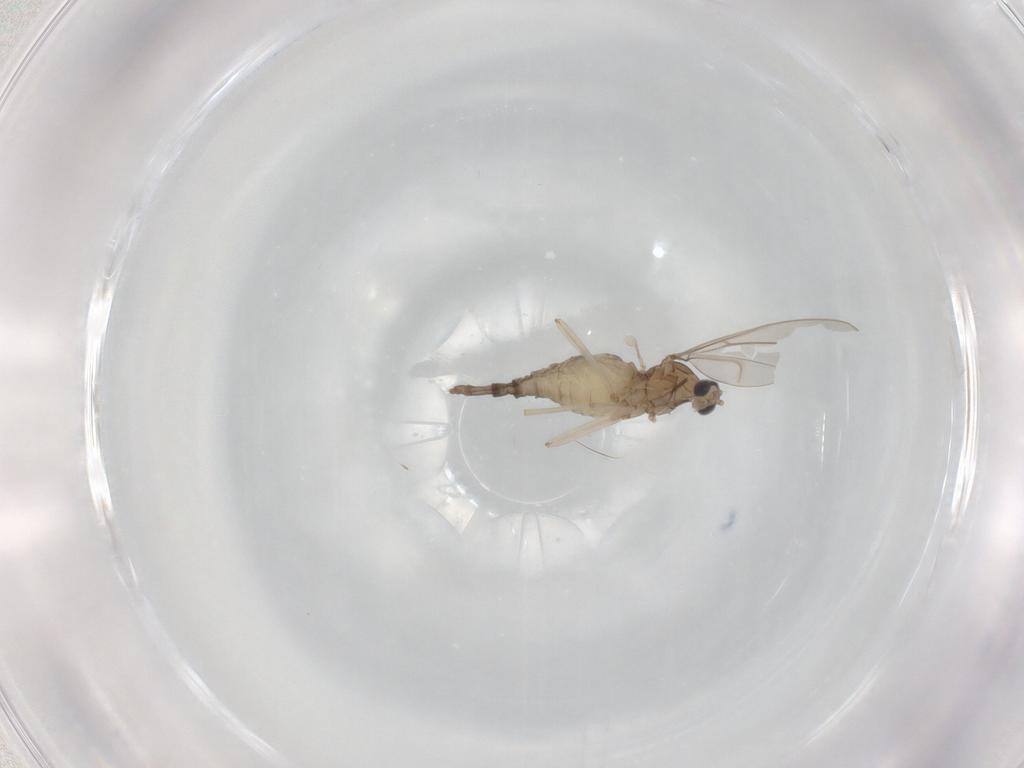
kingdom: Animalia
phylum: Arthropoda
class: Insecta
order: Diptera
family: Cecidomyiidae
